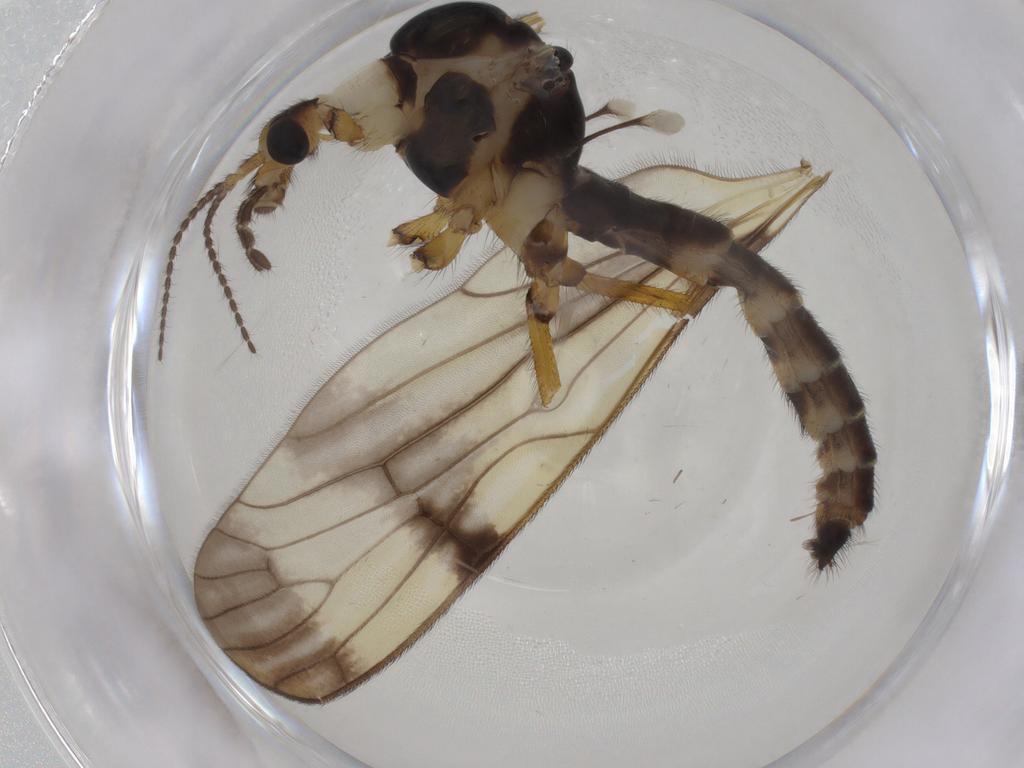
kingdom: Animalia
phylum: Arthropoda
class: Insecta
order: Diptera
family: Limoniidae
